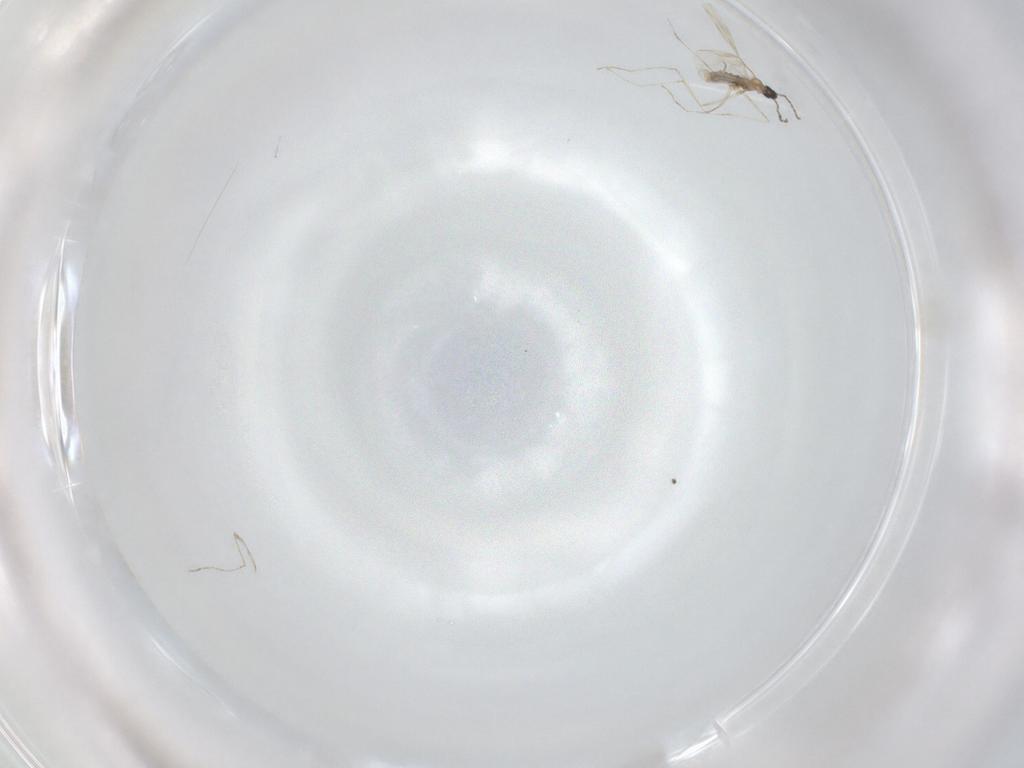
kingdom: Animalia
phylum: Arthropoda
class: Insecta
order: Diptera
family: Cecidomyiidae
